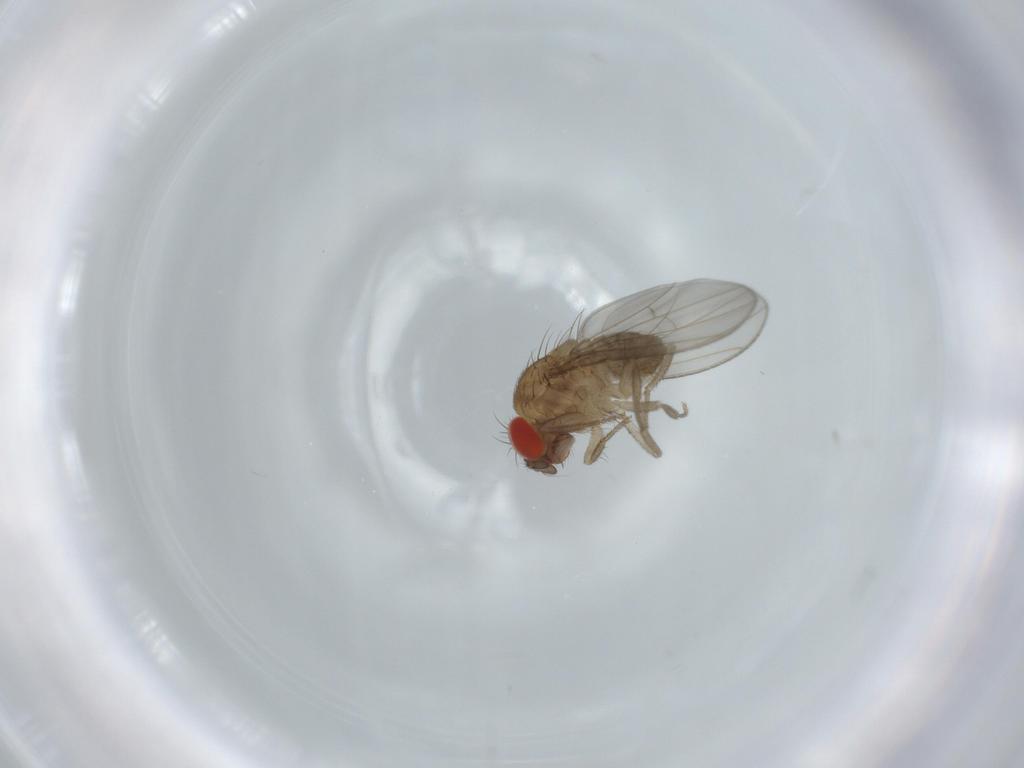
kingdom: Animalia
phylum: Arthropoda
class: Insecta
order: Diptera
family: Drosophilidae
